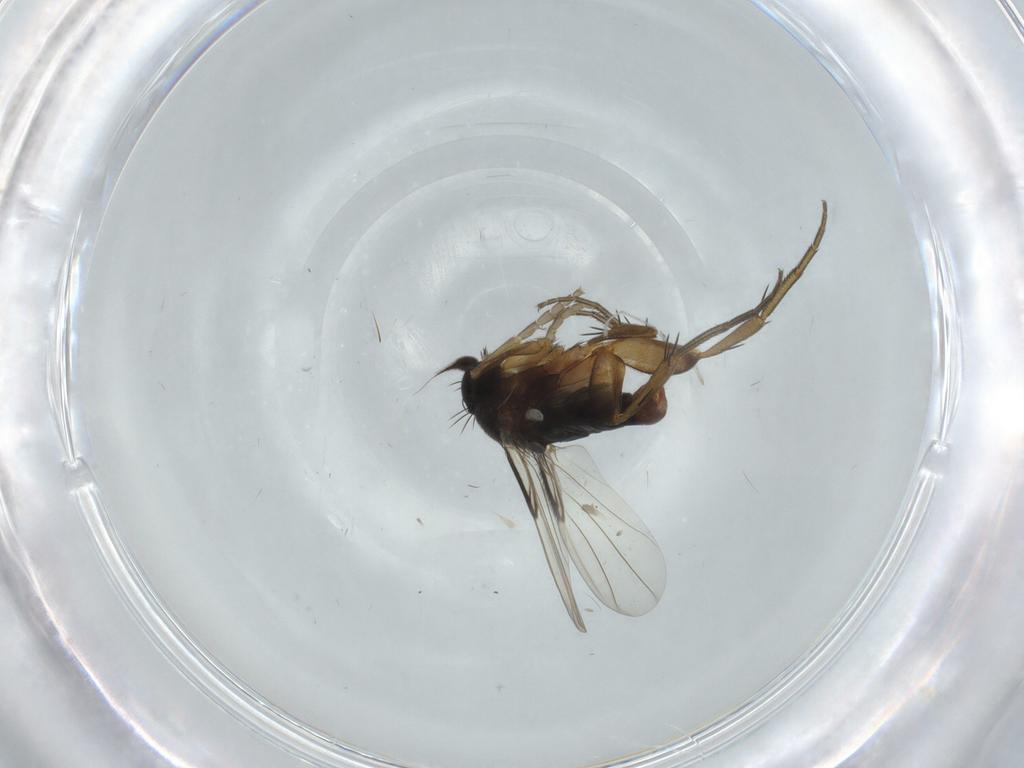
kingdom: Animalia
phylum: Arthropoda
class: Insecta
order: Diptera
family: Phoridae
